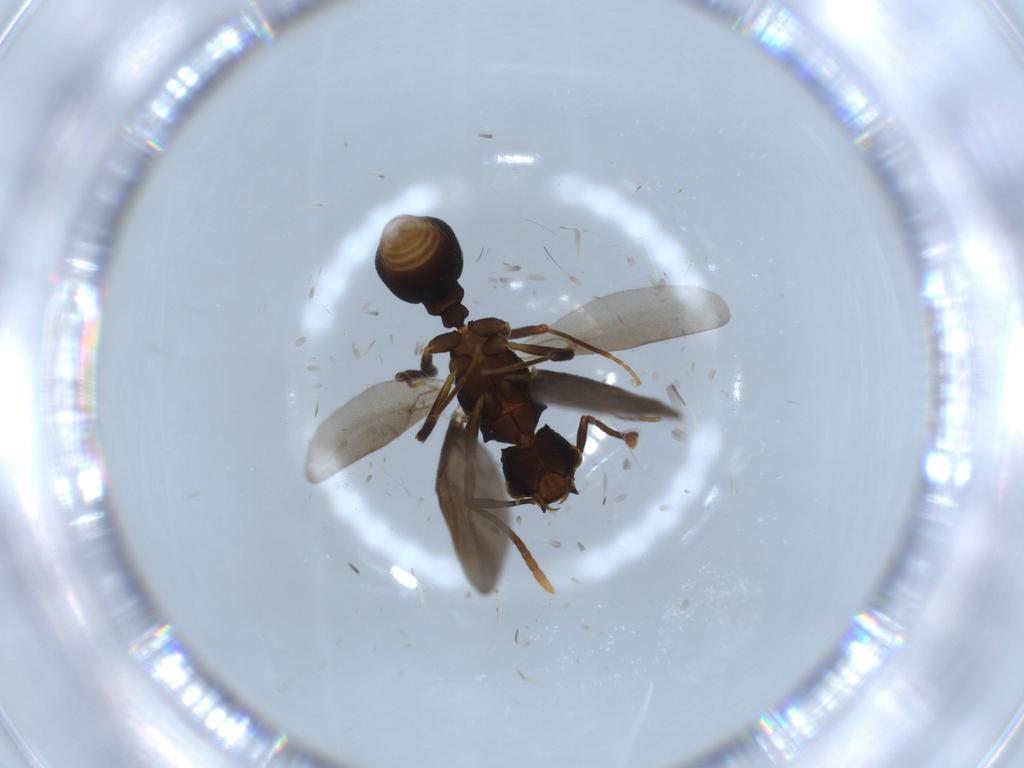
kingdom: Animalia
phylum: Arthropoda
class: Insecta
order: Hymenoptera
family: Formicidae
